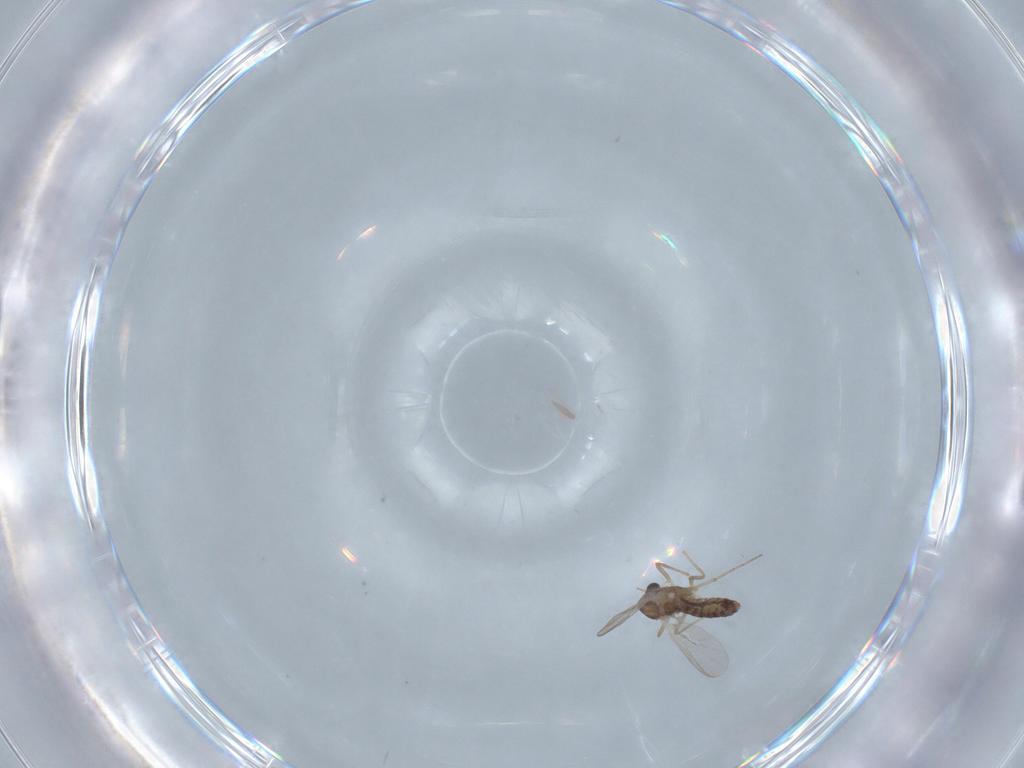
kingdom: Animalia
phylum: Arthropoda
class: Insecta
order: Diptera
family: Chironomidae
